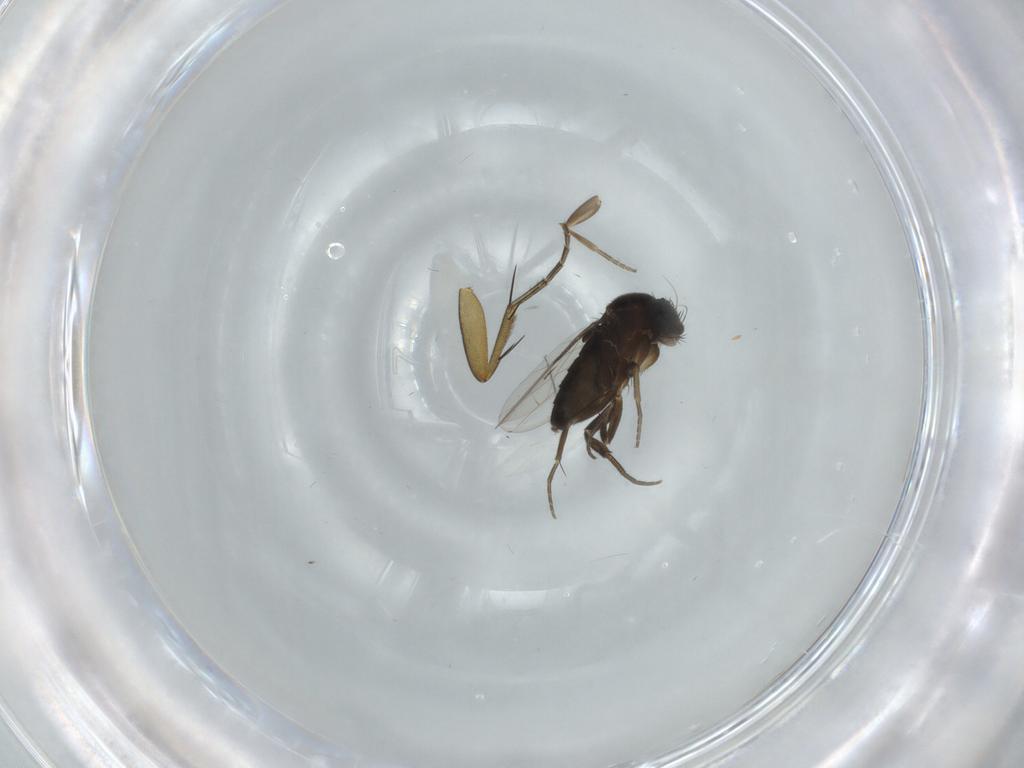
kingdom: Animalia
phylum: Arthropoda
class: Insecta
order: Diptera
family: Phoridae
